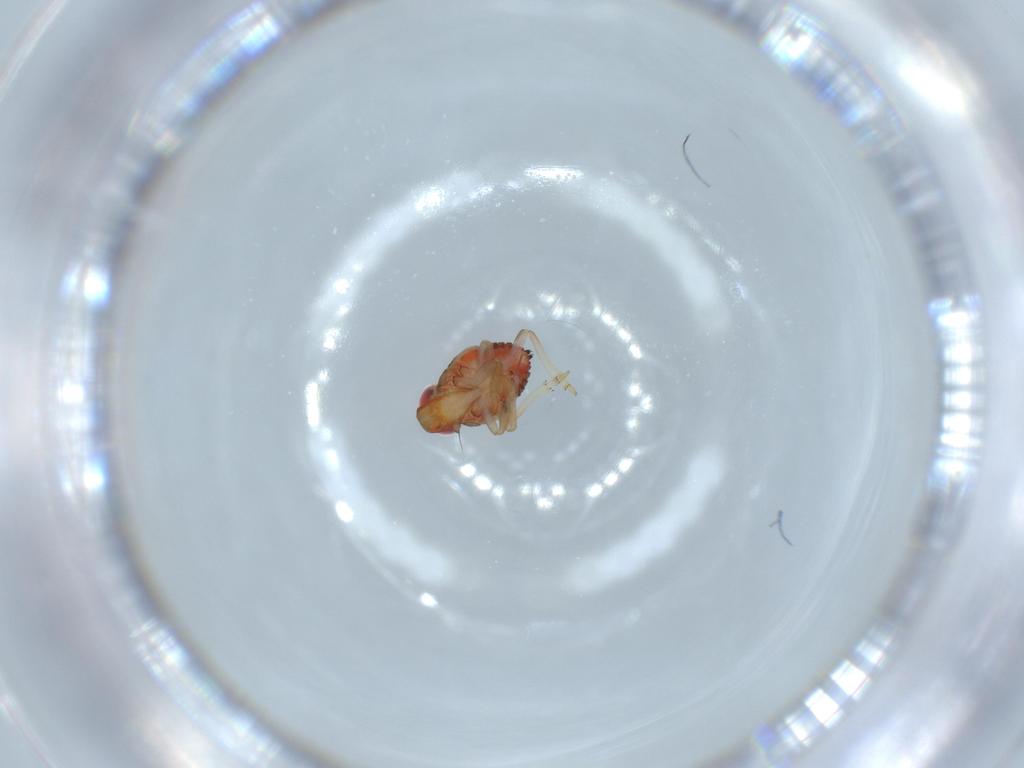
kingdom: Animalia
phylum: Arthropoda
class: Insecta
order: Hemiptera
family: Issidae
